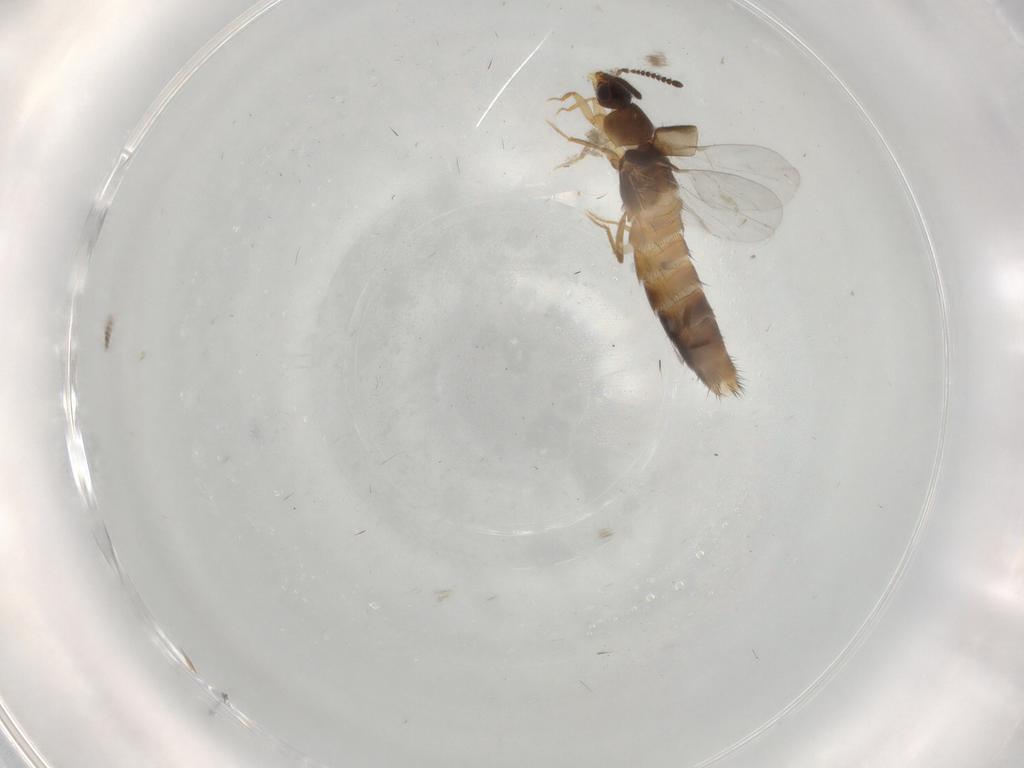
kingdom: Animalia
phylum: Arthropoda
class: Insecta
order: Coleoptera
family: Staphylinidae
